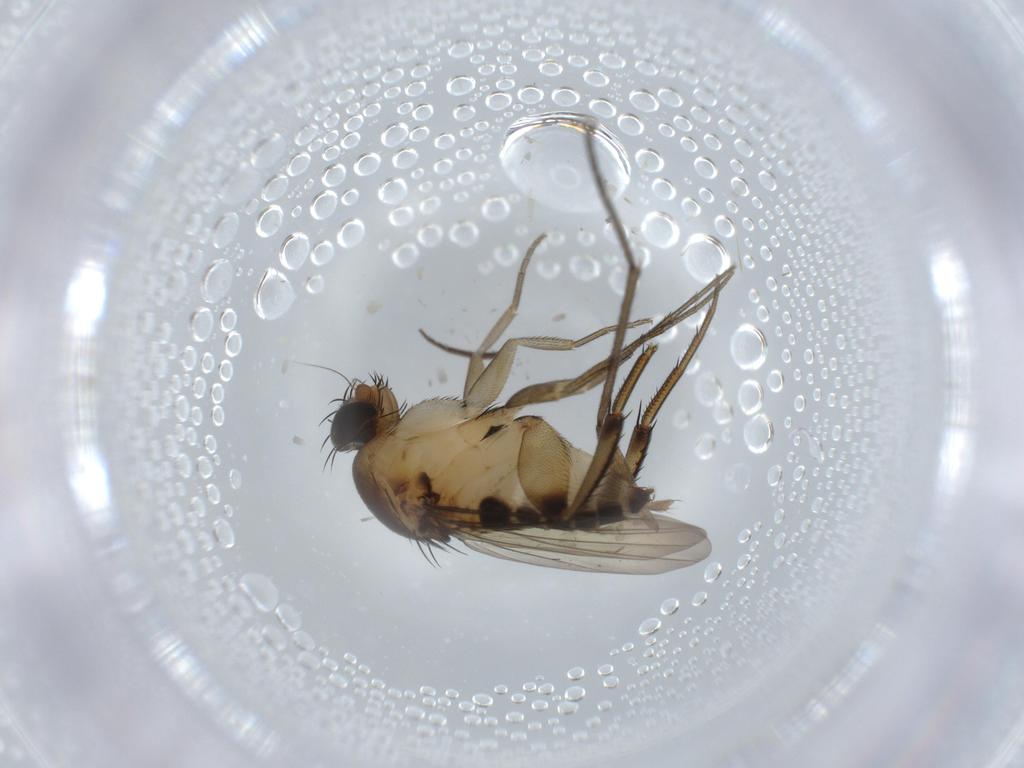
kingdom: Animalia
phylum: Arthropoda
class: Insecta
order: Diptera
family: Phoridae
